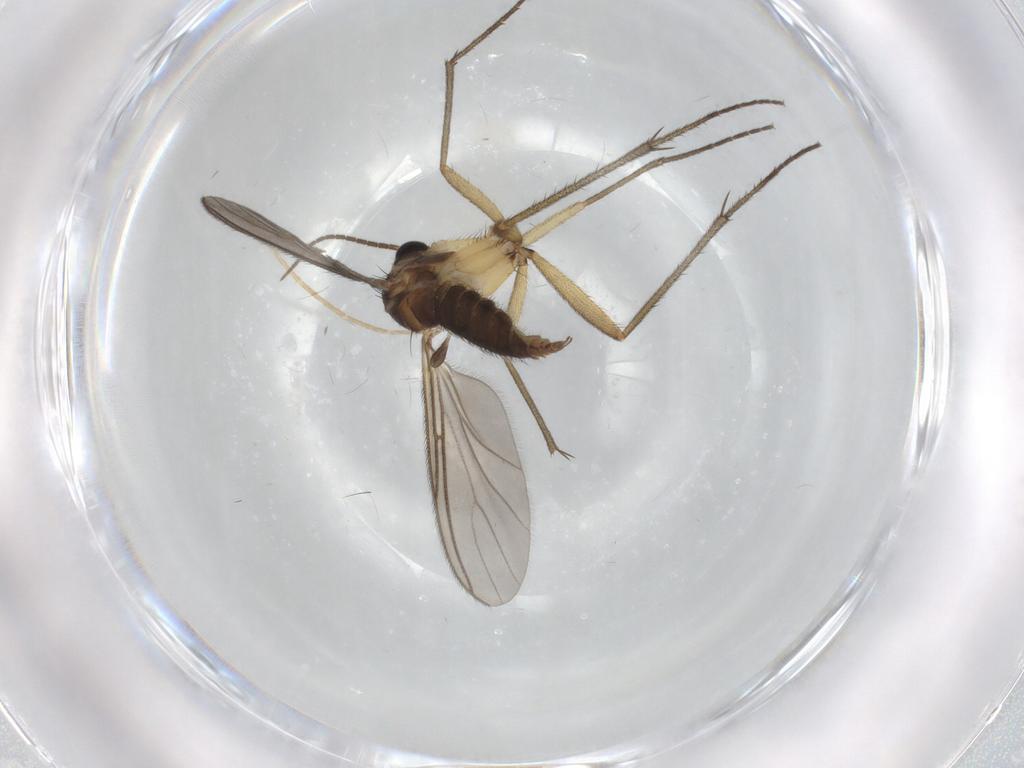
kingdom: Animalia
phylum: Arthropoda
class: Insecta
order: Diptera
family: Sciaridae
